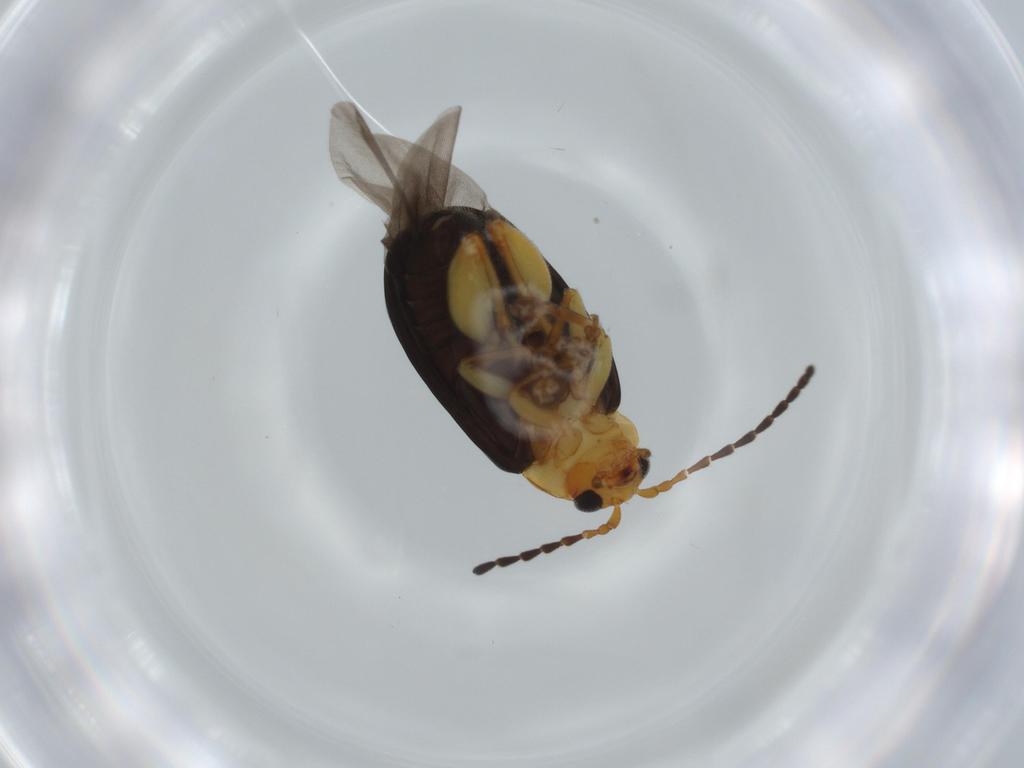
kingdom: Animalia
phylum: Arthropoda
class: Insecta
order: Coleoptera
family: Chrysomelidae
